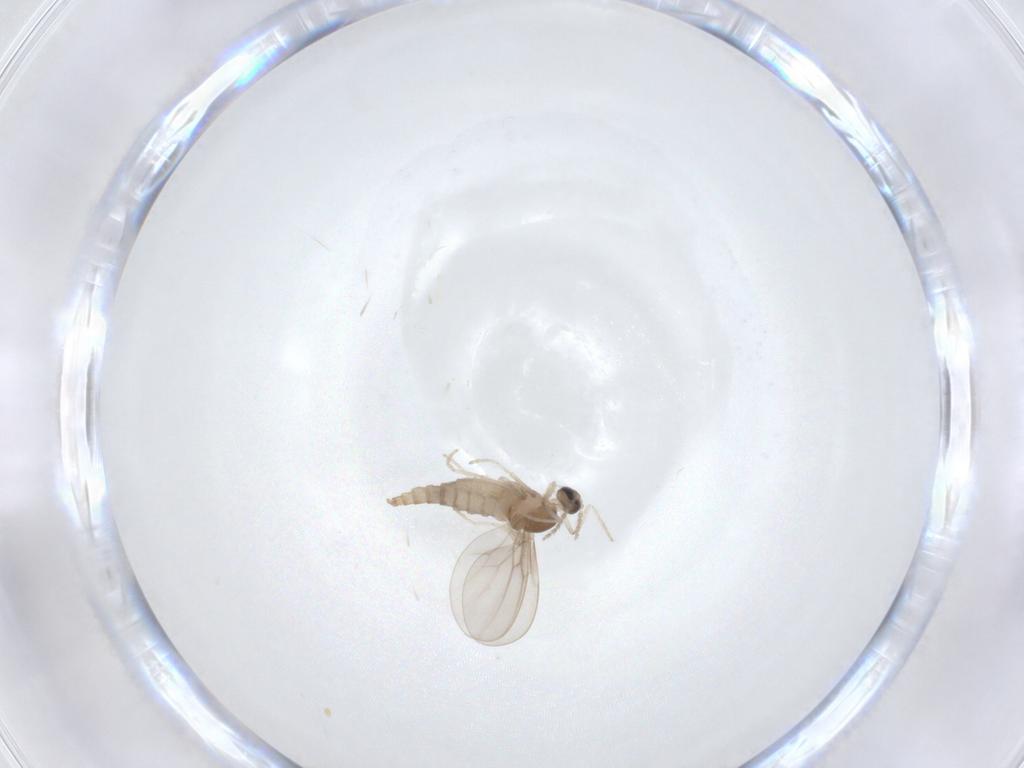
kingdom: Animalia
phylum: Arthropoda
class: Insecta
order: Diptera
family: Cecidomyiidae
